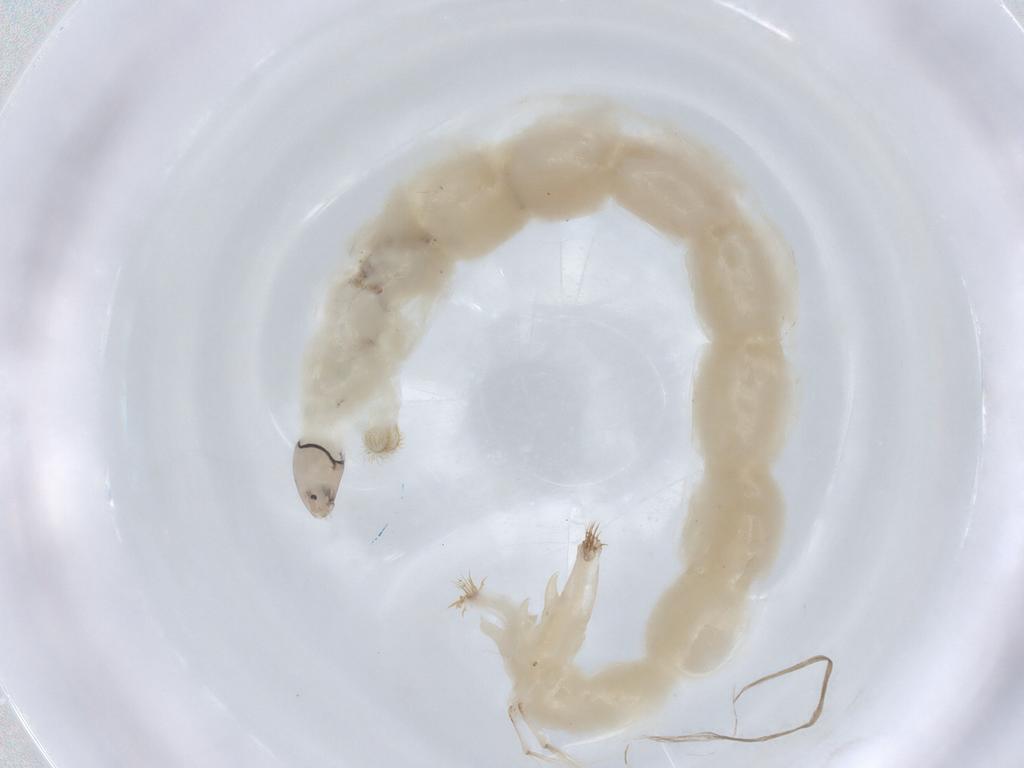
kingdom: Animalia
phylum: Arthropoda
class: Insecta
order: Diptera
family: Chironomidae
